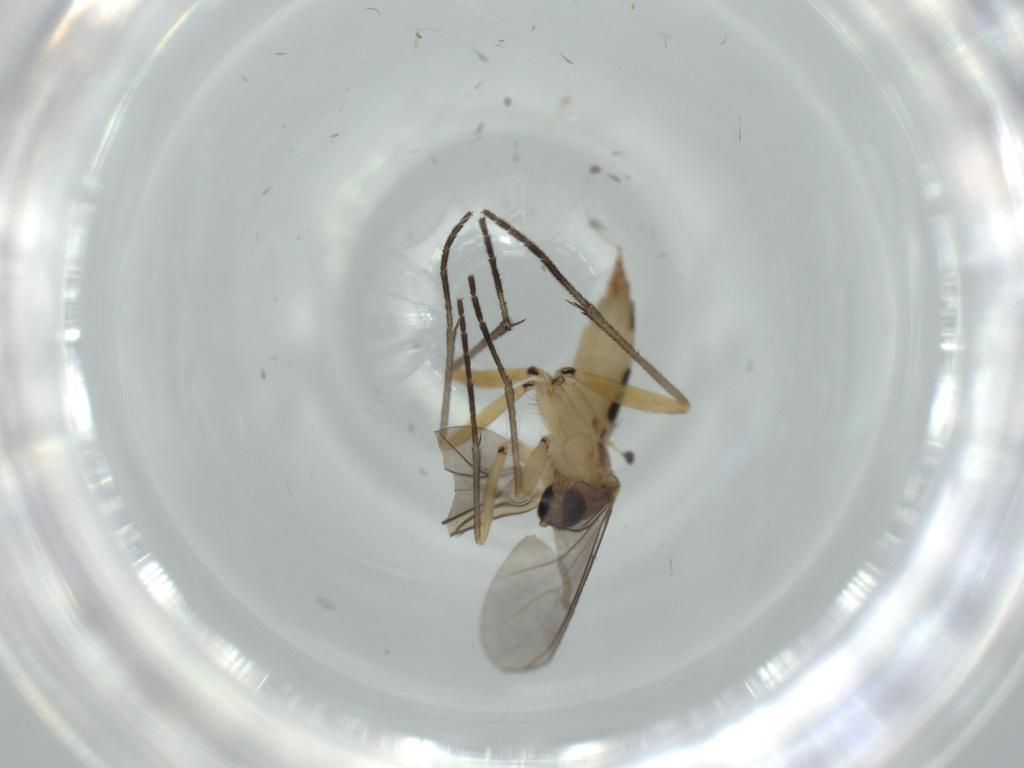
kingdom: Animalia
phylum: Arthropoda
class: Insecta
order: Diptera
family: Sciaridae
